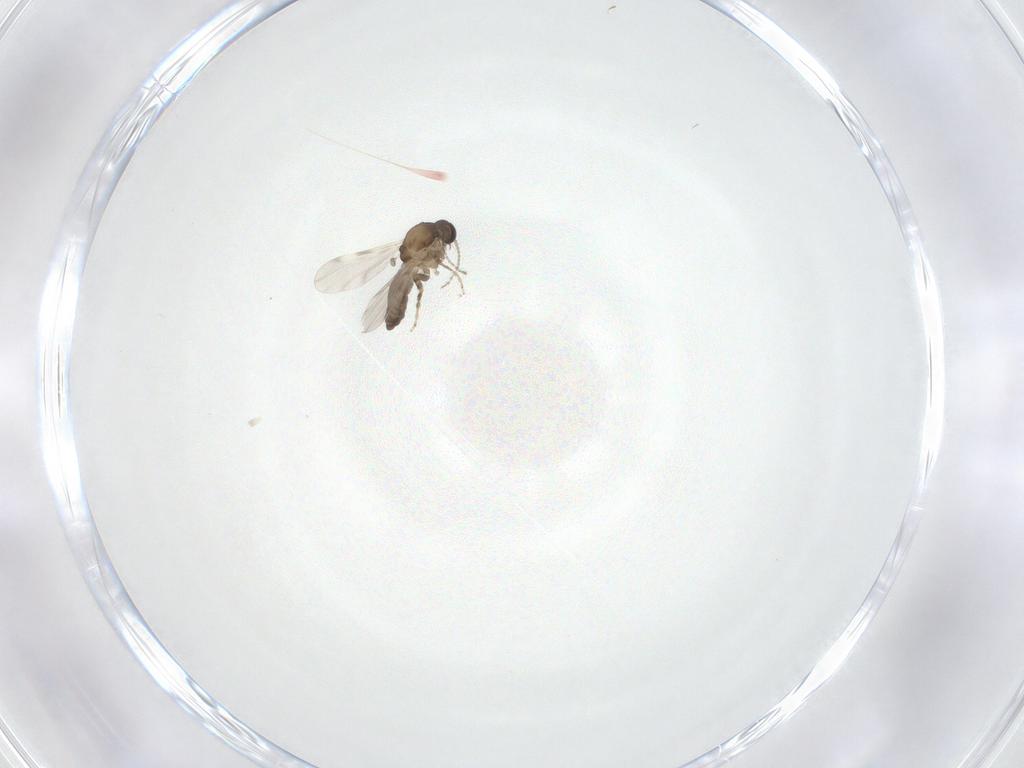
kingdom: Animalia
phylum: Arthropoda
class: Insecta
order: Diptera
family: Ceratopogonidae
